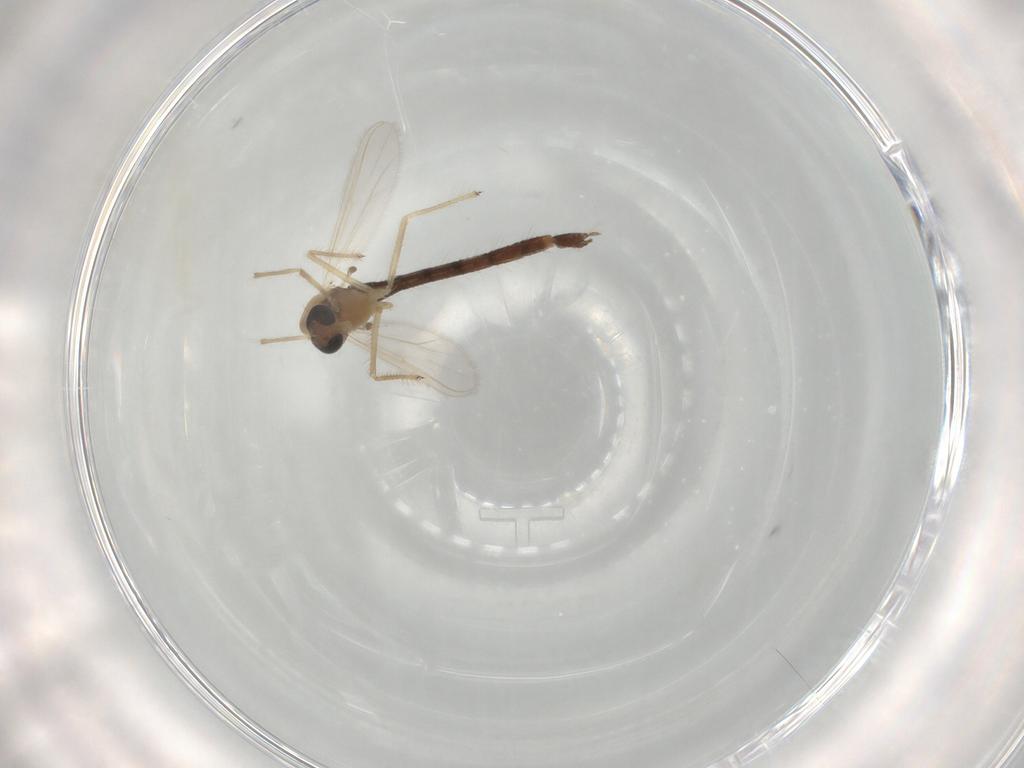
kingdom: Animalia
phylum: Arthropoda
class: Insecta
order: Diptera
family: Chironomidae
